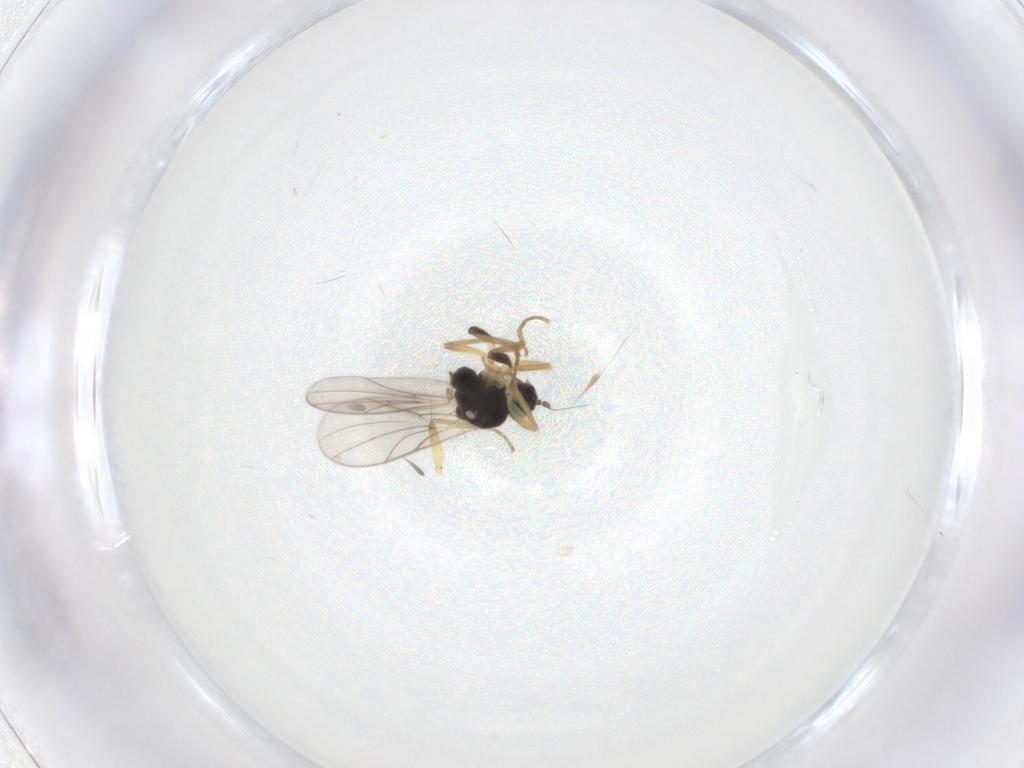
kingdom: Animalia
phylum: Arthropoda
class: Insecta
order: Diptera
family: Hybotidae
